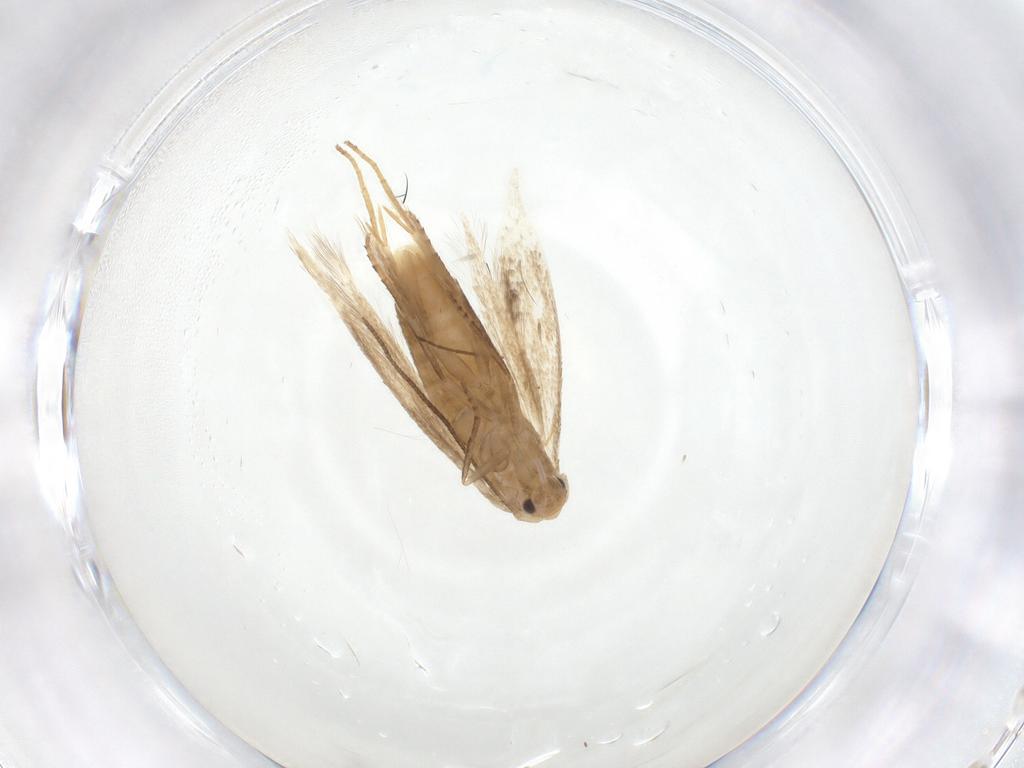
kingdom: Animalia
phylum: Arthropoda
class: Insecta
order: Lepidoptera
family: Bucculatricidae
